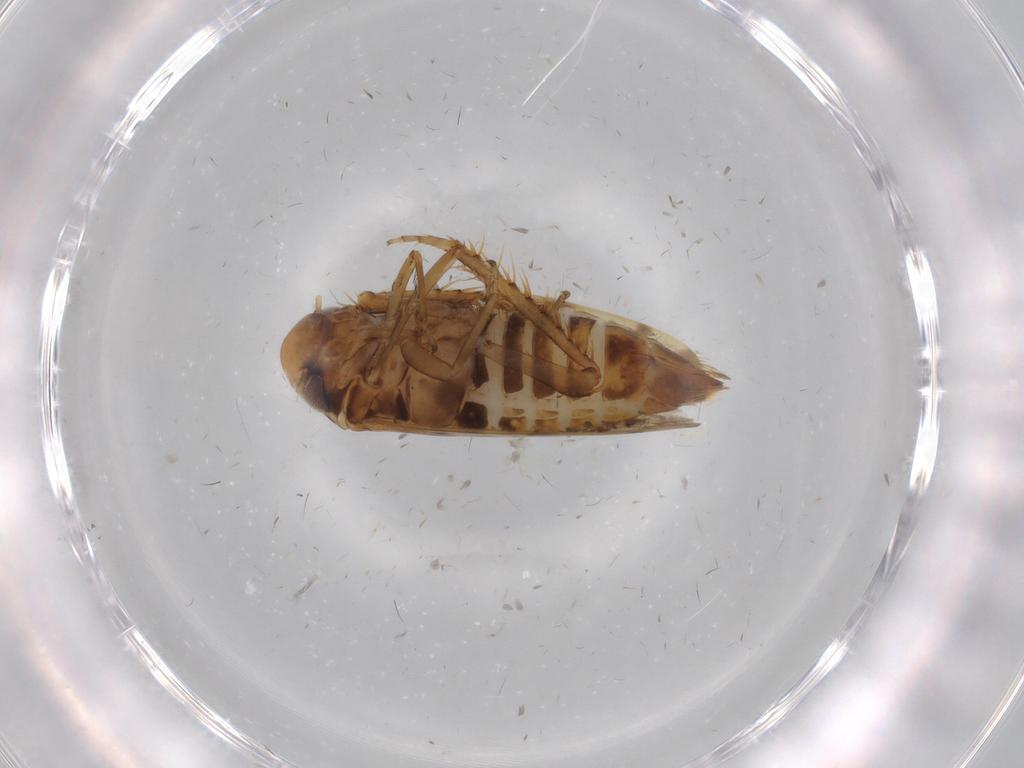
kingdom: Animalia
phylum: Arthropoda
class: Insecta
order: Hemiptera
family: Cicadellidae
